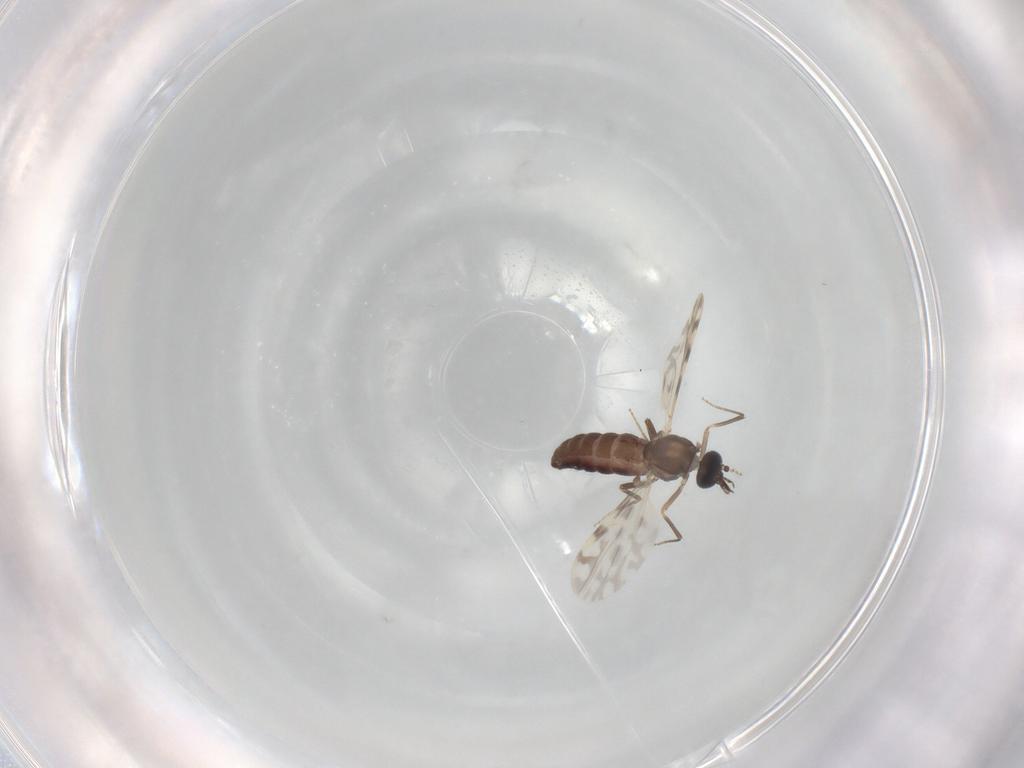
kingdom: Animalia
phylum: Arthropoda
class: Insecta
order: Diptera
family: Ceratopogonidae
